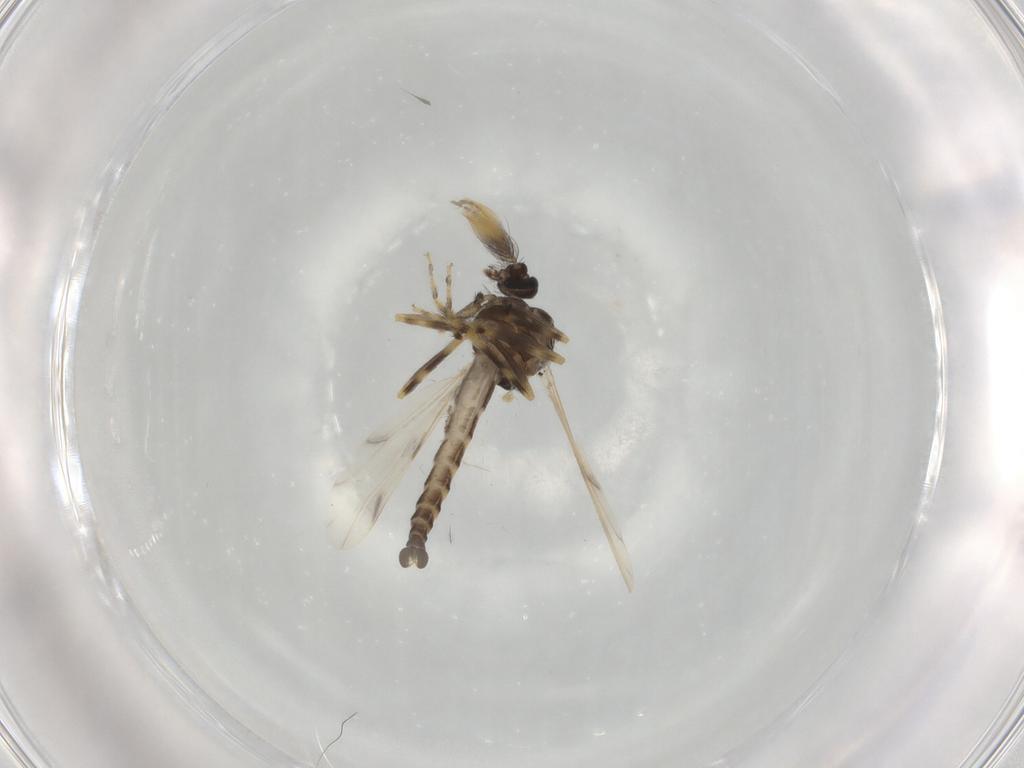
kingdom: Animalia
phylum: Arthropoda
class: Insecta
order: Diptera
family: Ceratopogonidae
